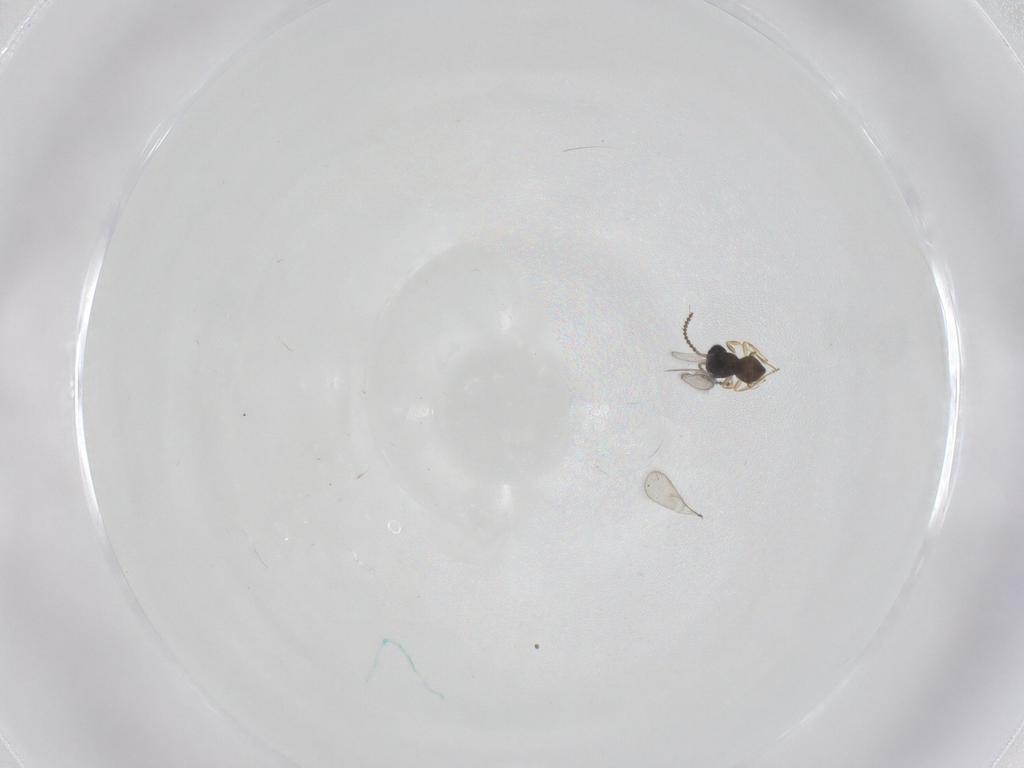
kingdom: Animalia
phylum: Arthropoda
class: Insecta
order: Hymenoptera
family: Scelionidae
